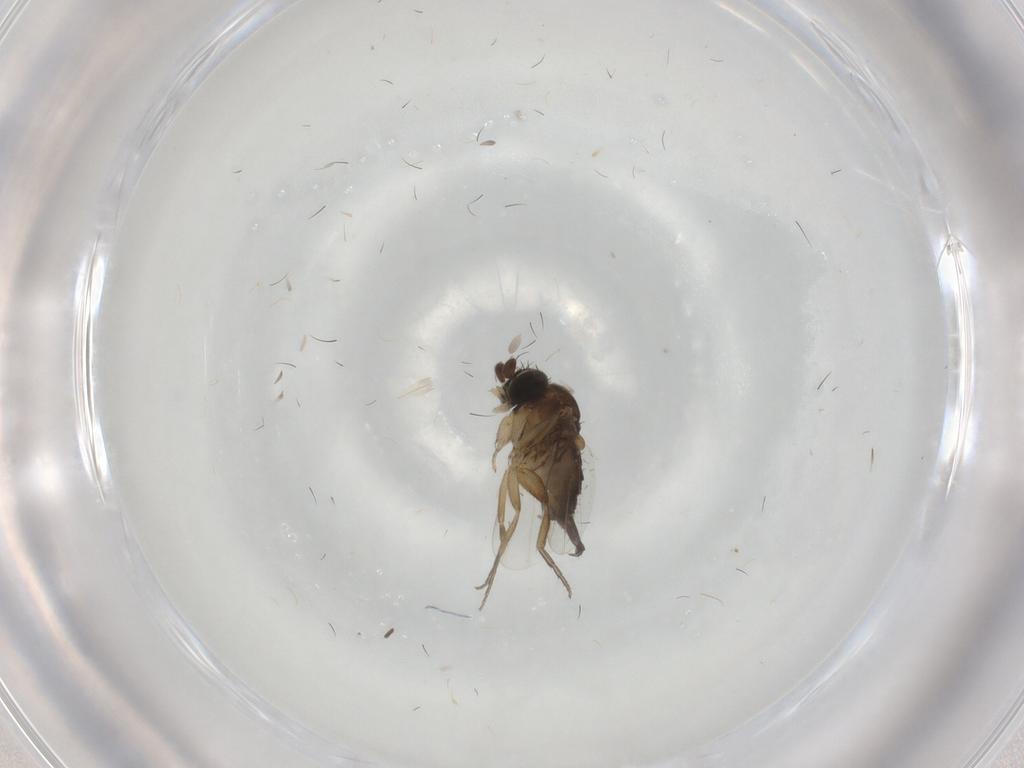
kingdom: Animalia
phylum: Arthropoda
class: Insecta
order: Diptera
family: Phoridae
